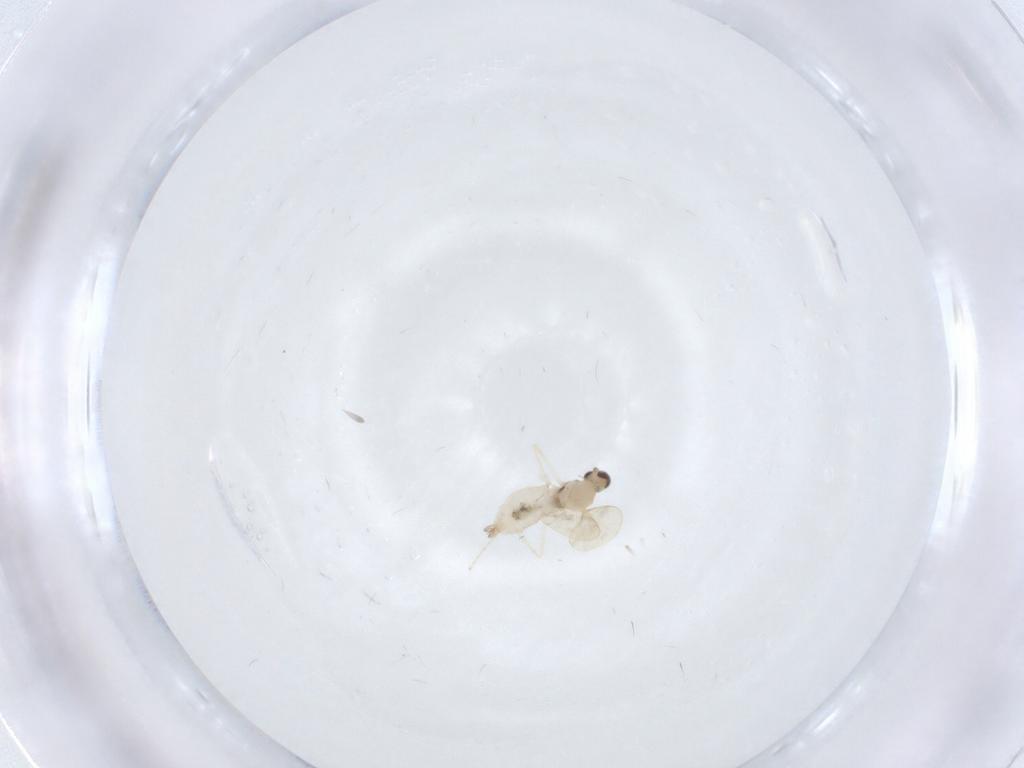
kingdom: Animalia
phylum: Arthropoda
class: Insecta
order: Diptera
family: Cecidomyiidae
